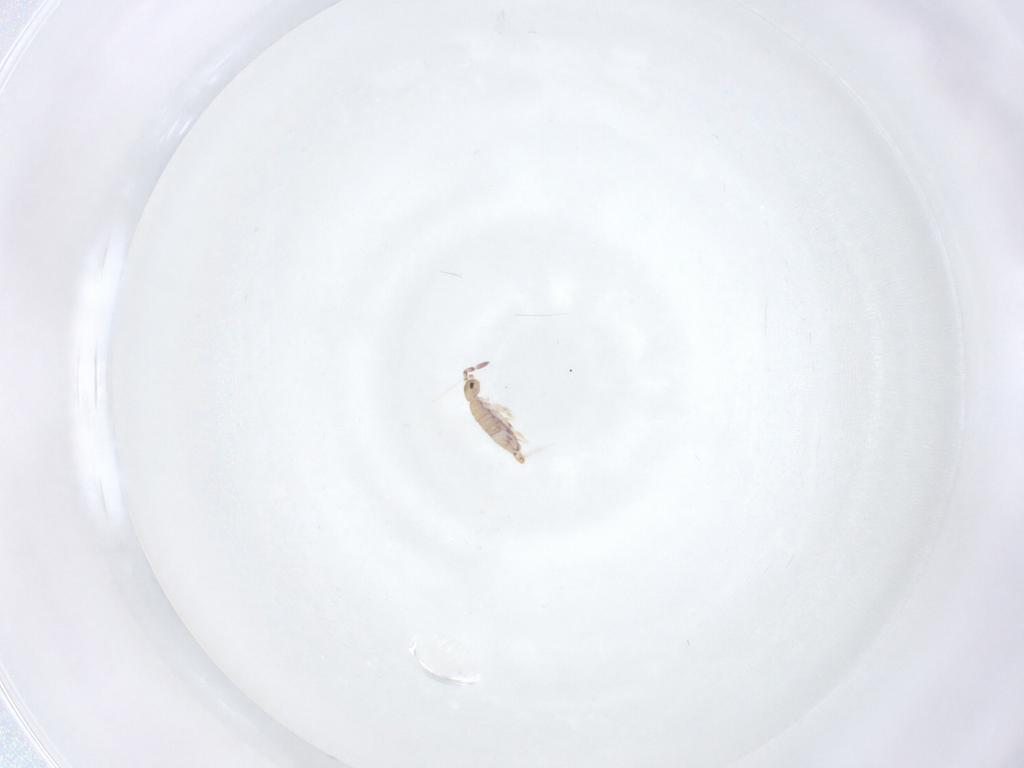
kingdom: Animalia
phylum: Arthropoda
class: Collembola
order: Entomobryomorpha
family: Entomobryidae
